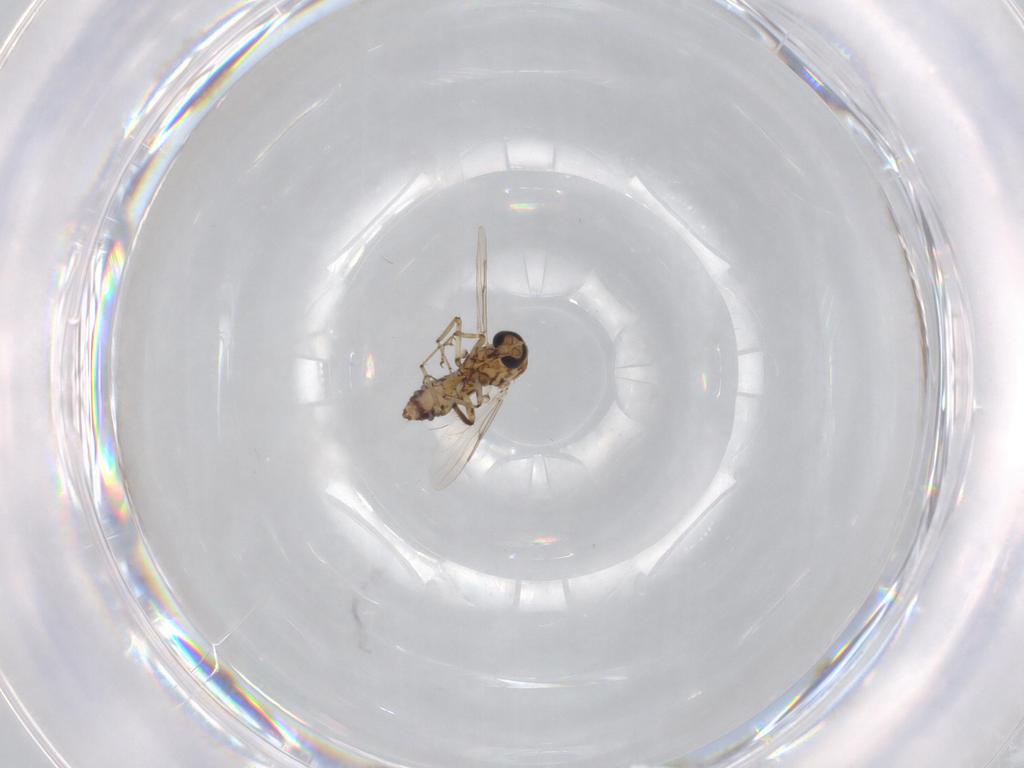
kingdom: Animalia
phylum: Arthropoda
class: Insecta
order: Diptera
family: Ceratopogonidae
